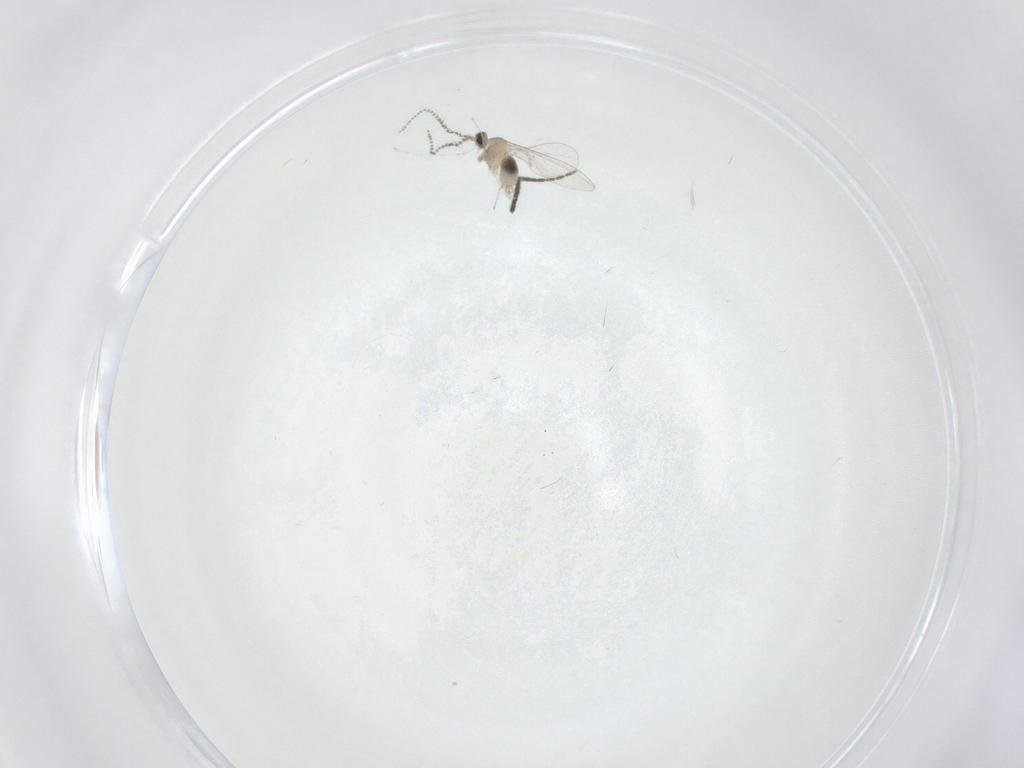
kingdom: Animalia
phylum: Arthropoda
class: Insecta
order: Diptera
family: Cecidomyiidae
